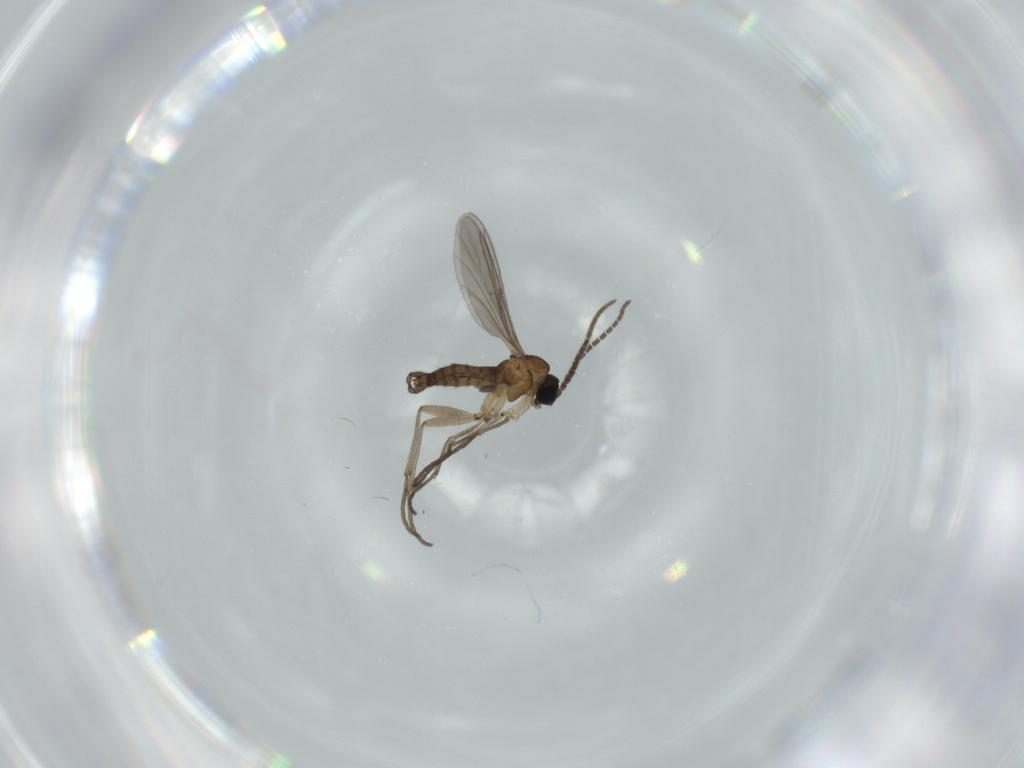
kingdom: Animalia
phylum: Arthropoda
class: Insecta
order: Diptera
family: Sciaridae
